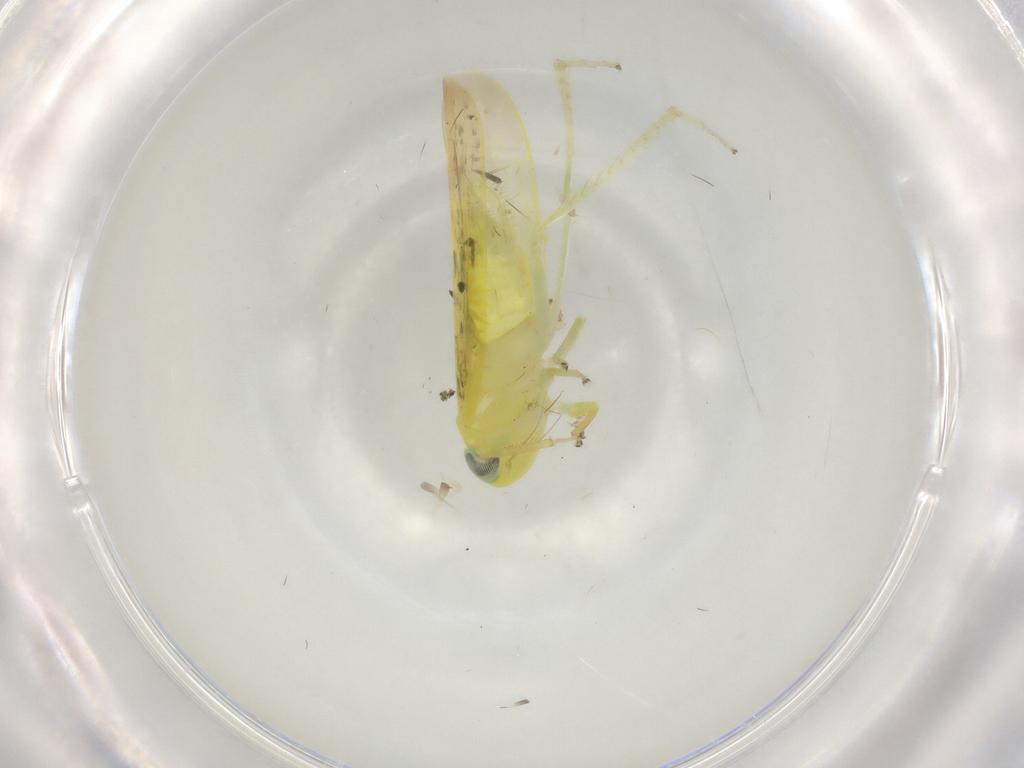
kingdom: Animalia
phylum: Arthropoda
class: Insecta
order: Hemiptera
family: Cicadellidae
